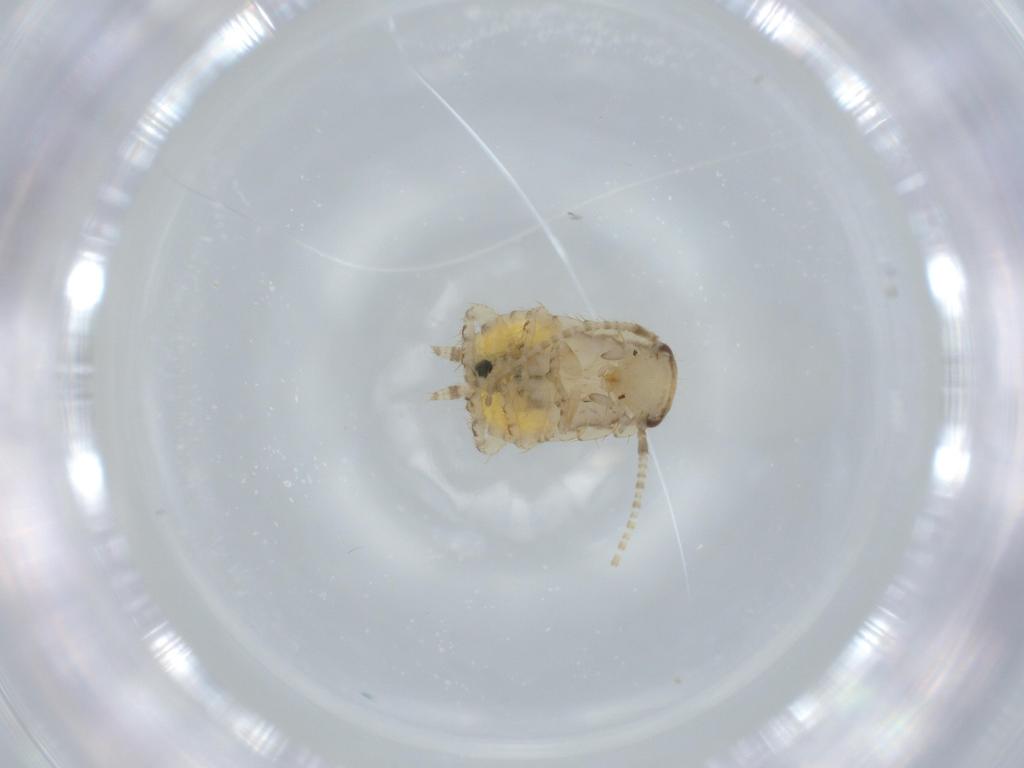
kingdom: Animalia
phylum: Arthropoda
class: Insecta
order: Blattodea
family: Ectobiidae
